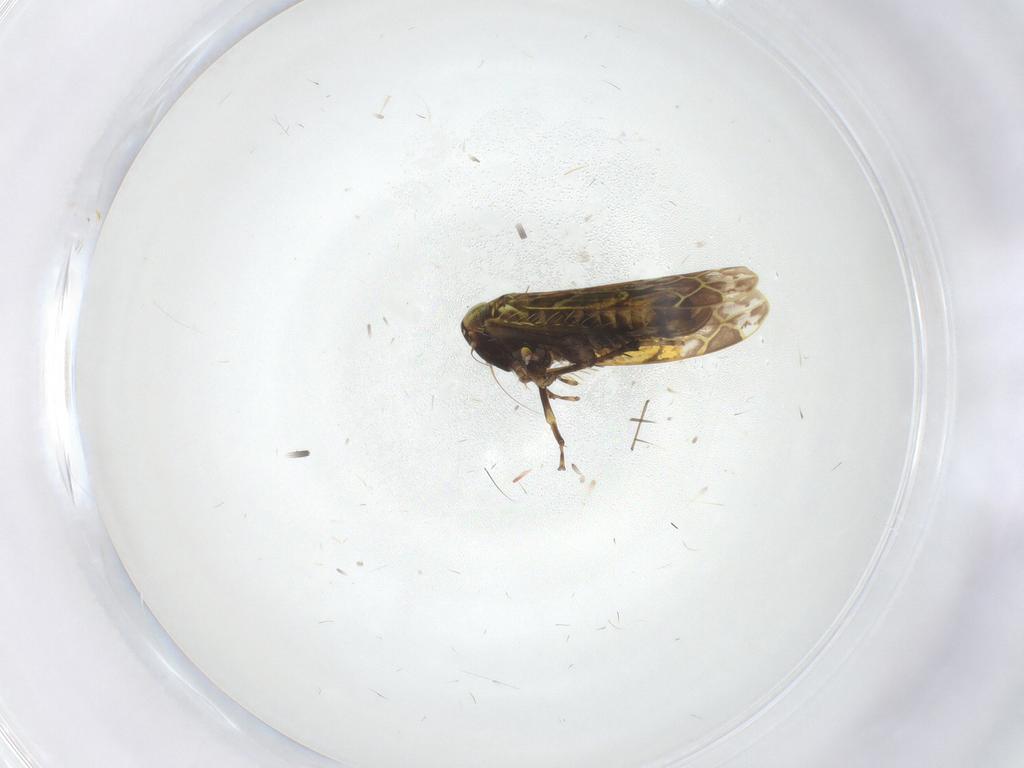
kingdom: Animalia
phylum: Arthropoda
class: Insecta
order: Hemiptera
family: Cicadellidae
